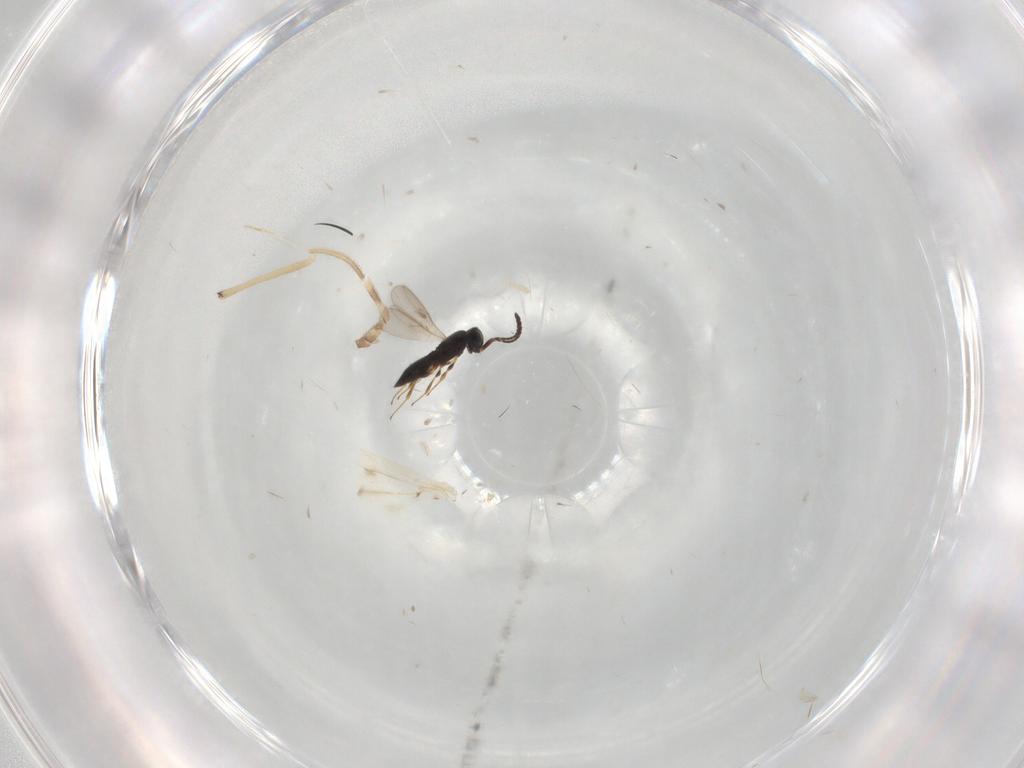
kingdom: Animalia
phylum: Arthropoda
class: Insecta
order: Hymenoptera
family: Scelionidae
